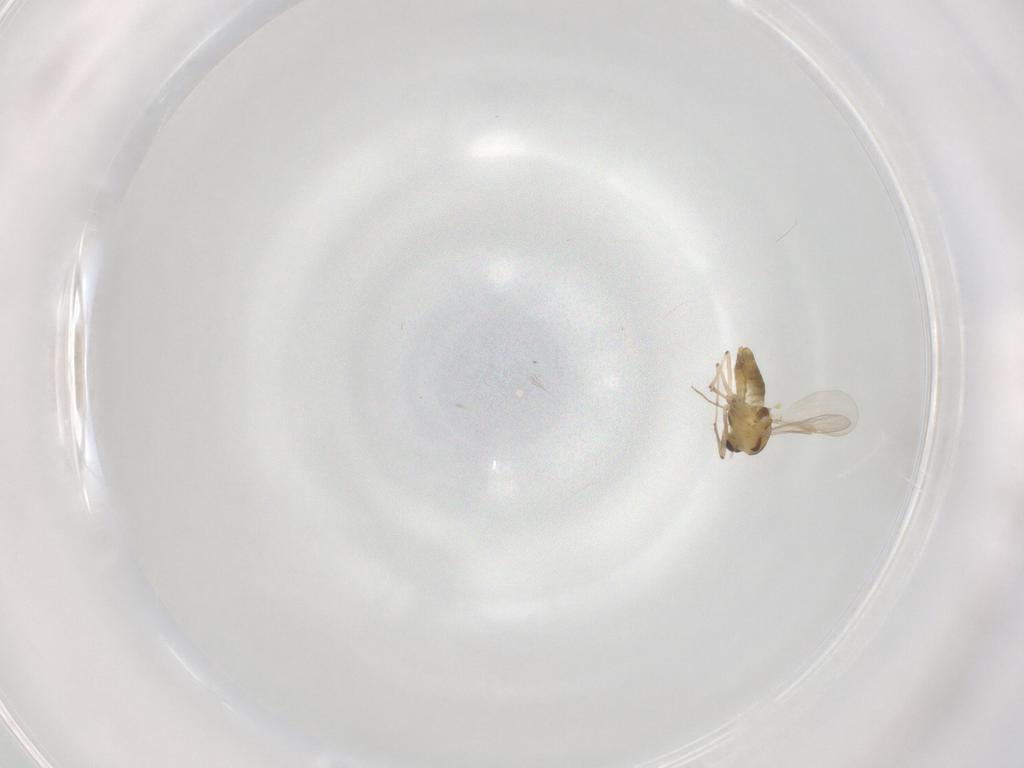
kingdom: Animalia
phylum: Arthropoda
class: Insecta
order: Diptera
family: Chironomidae
